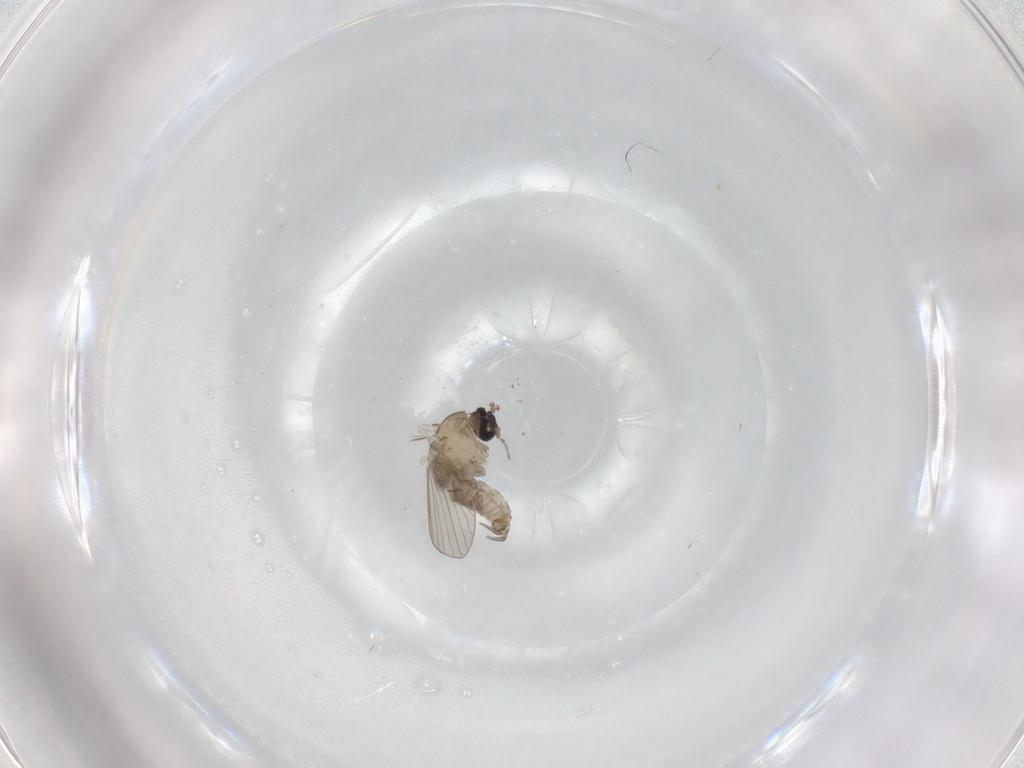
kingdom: Animalia
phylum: Arthropoda
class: Insecta
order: Diptera
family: Psychodidae
